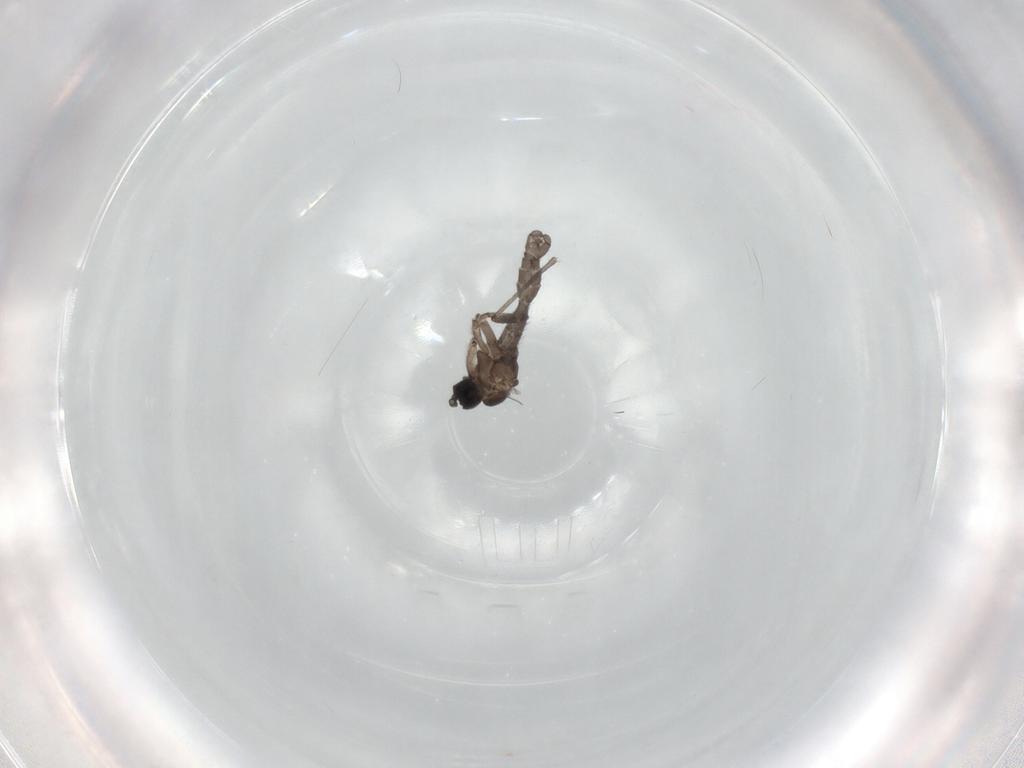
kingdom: Animalia
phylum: Arthropoda
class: Insecta
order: Diptera
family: Sciaridae
